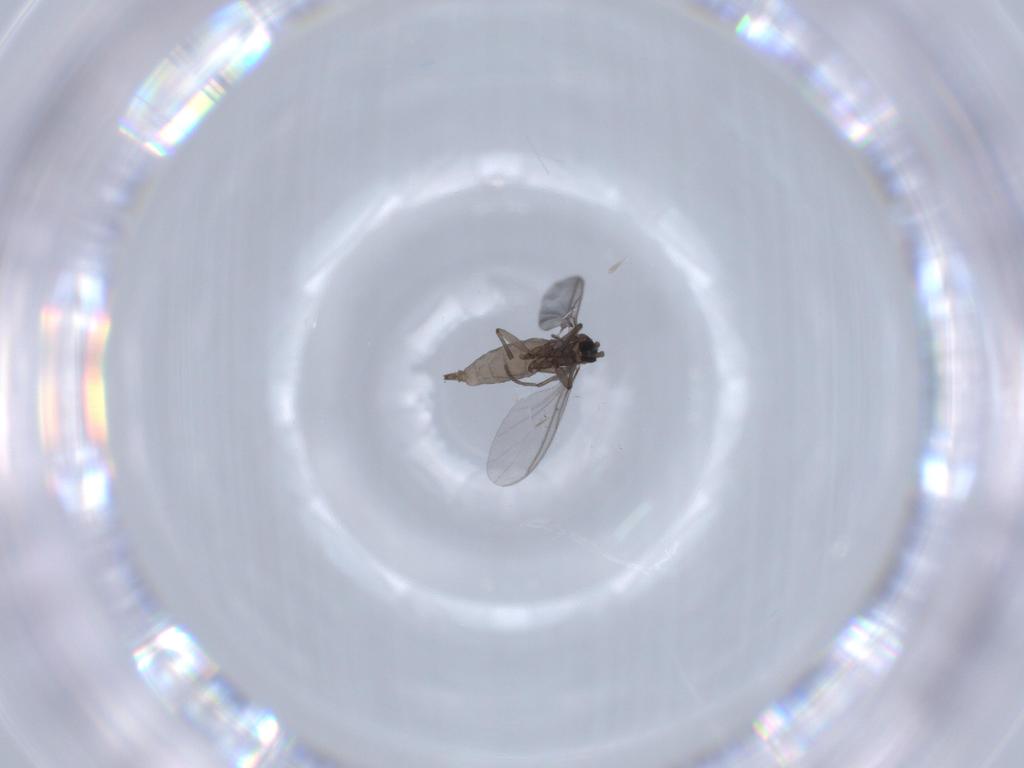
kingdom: Animalia
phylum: Arthropoda
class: Insecta
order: Diptera
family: Sciaridae
